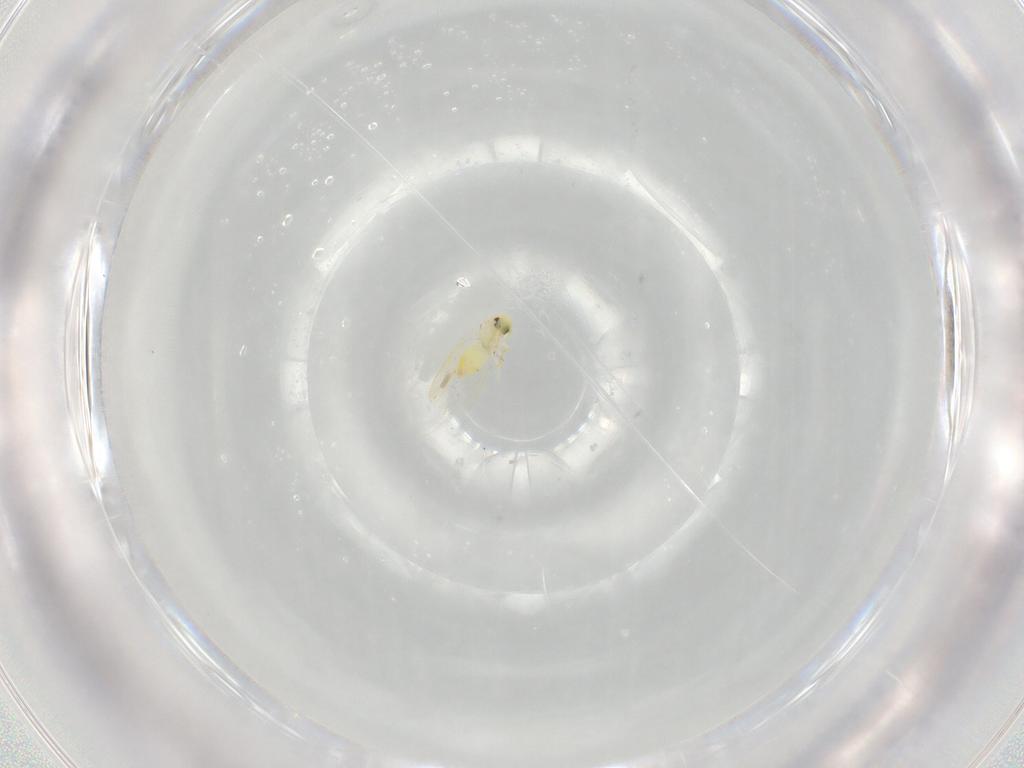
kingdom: Animalia
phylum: Arthropoda
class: Insecta
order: Hemiptera
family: Aleyrodidae
